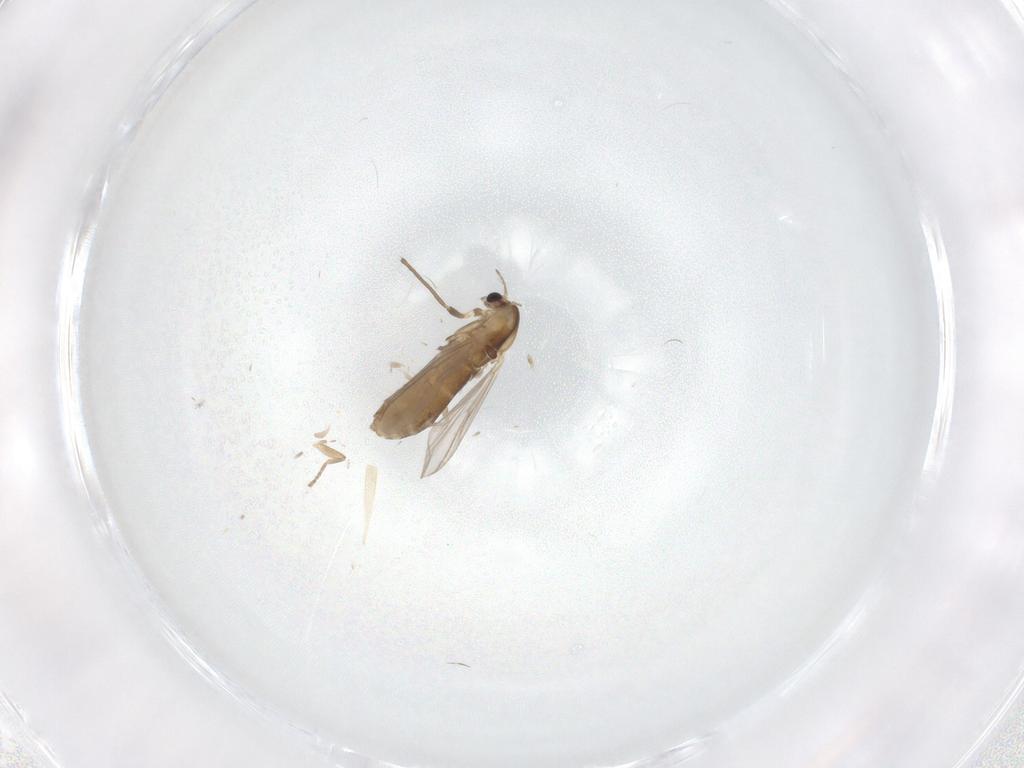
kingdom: Animalia
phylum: Arthropoda
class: Insecta
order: Diptera
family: Chironomidae
